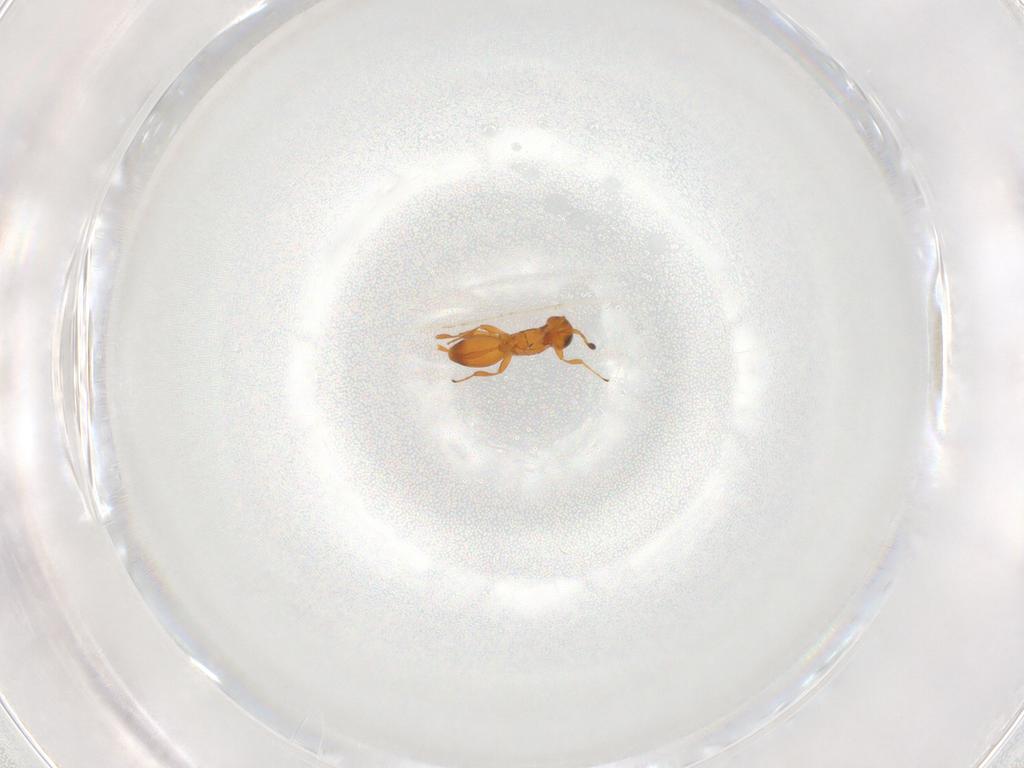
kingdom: Animalia
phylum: Arthropoda
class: Insecta
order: Hymenoptera
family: Platygastridae
